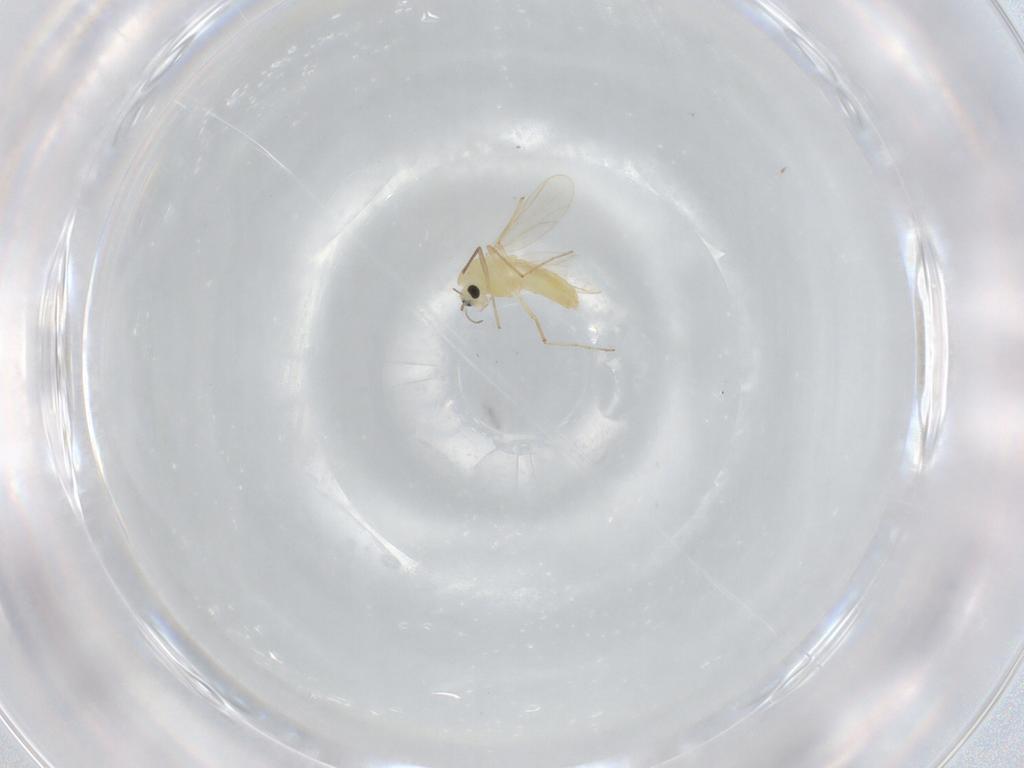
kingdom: Animalia
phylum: Arthropoda
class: Insecta
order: Diptera
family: Chironomidae
